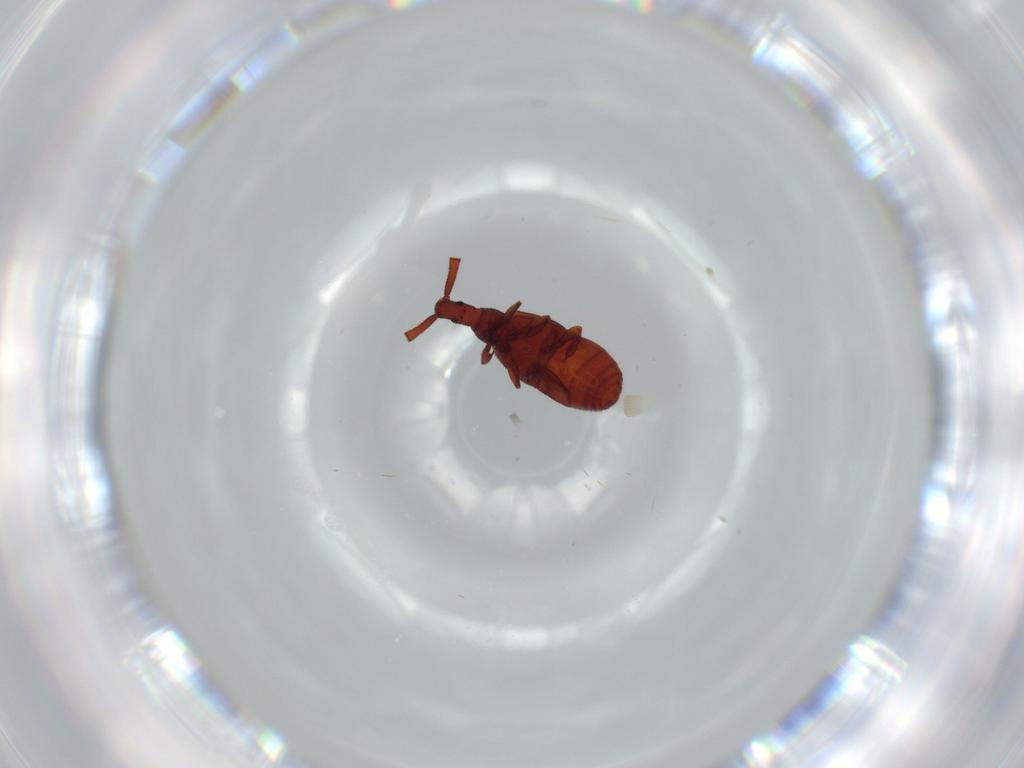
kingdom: Animalia
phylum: Arthropoda
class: Insecta
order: Coleoptera
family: Staphylinidae
